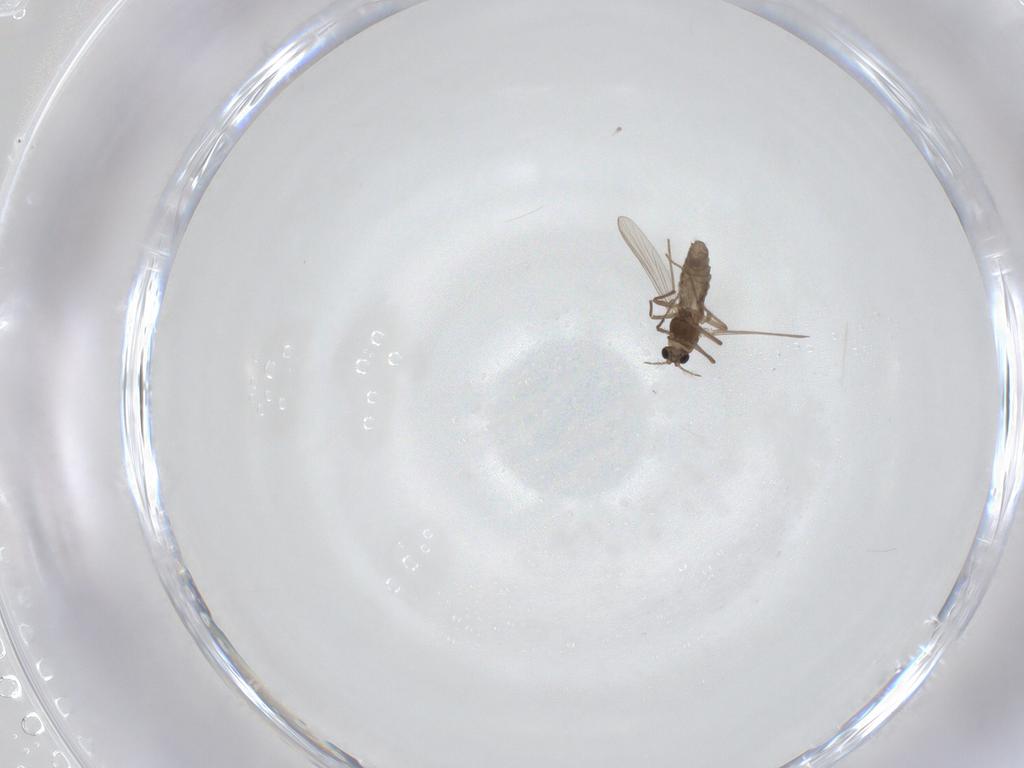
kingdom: Animalia
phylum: Arthropoda
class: Insecta
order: Diptera
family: Chironomidae
